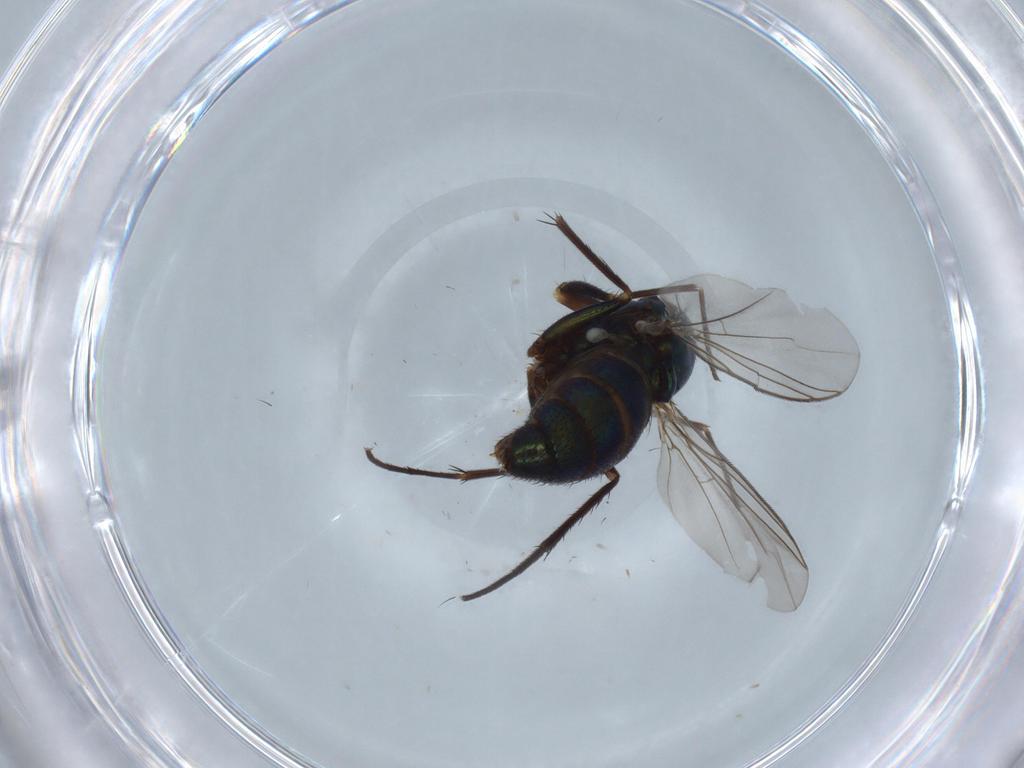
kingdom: Animalia
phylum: Arthropoda
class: Insecta
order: Diptera
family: Dolichopodidae
